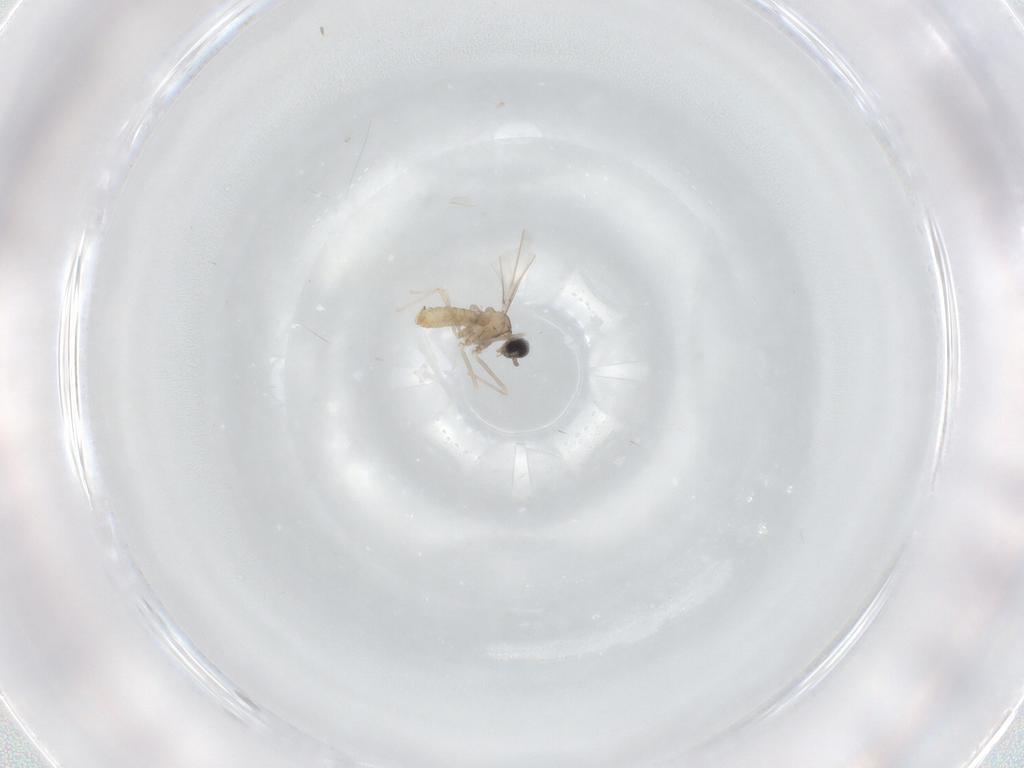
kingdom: Animalia
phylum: Arthropoda
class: Insecta
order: Diptera
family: Cecidomyiidae
